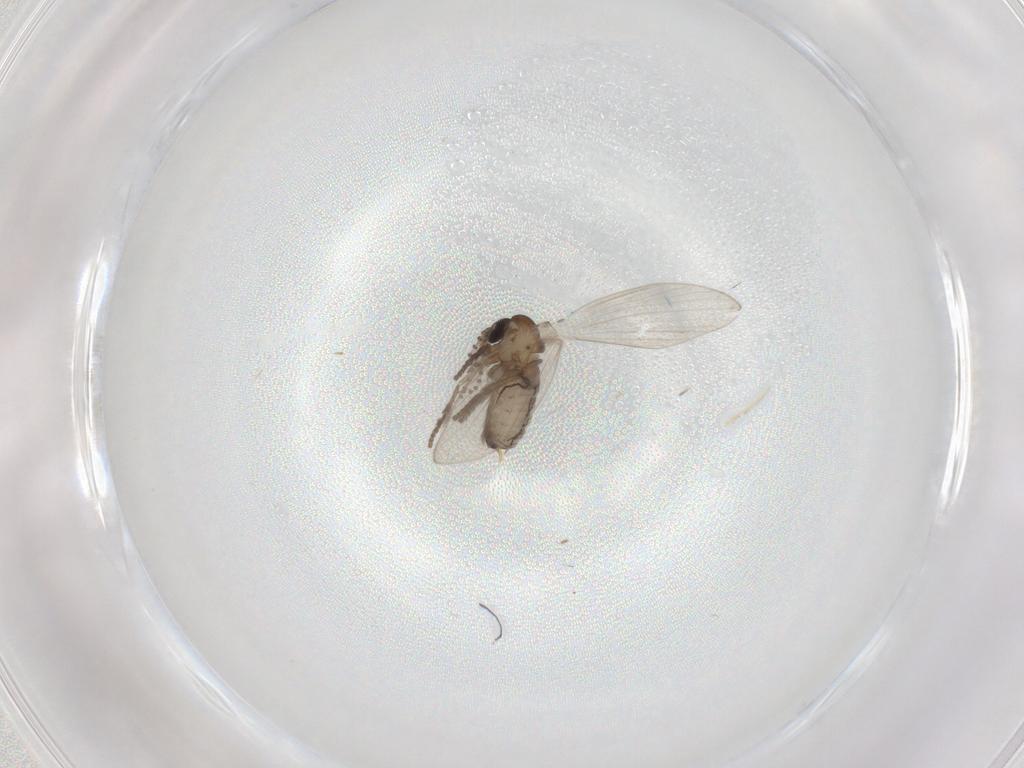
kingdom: Animalia
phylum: Arthropoda
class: Insecta
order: Diptera
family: Psychodidae
